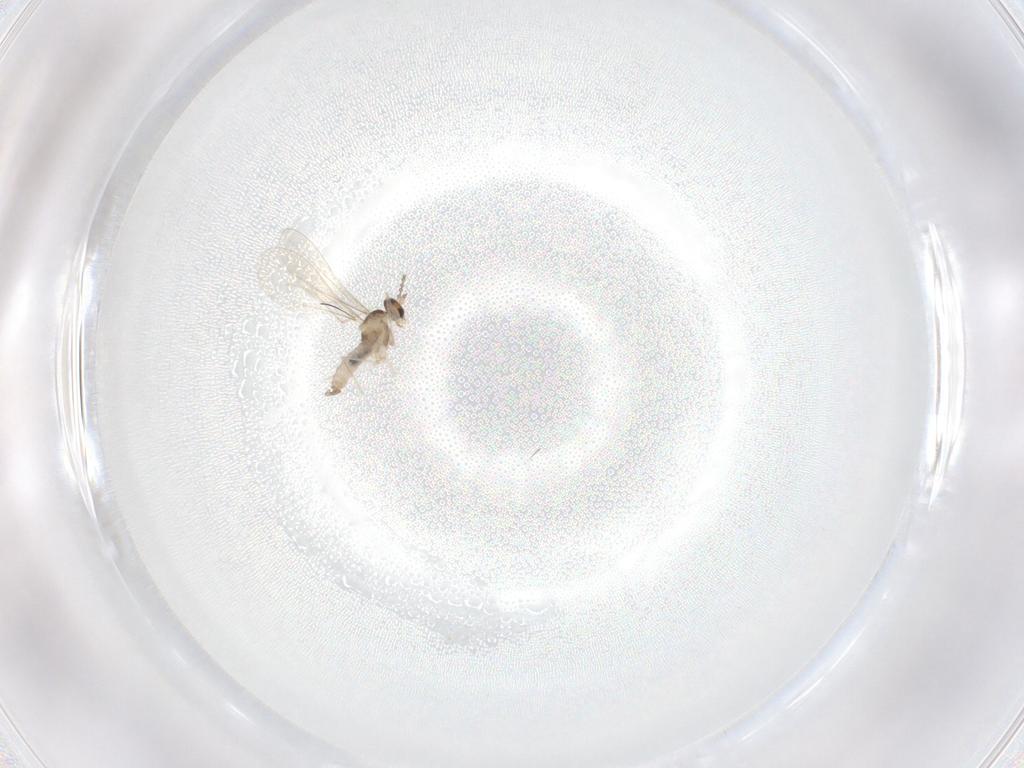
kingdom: Animalia
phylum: Arthropoda
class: Insecta
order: Diptera
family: Cecidomyiidae
